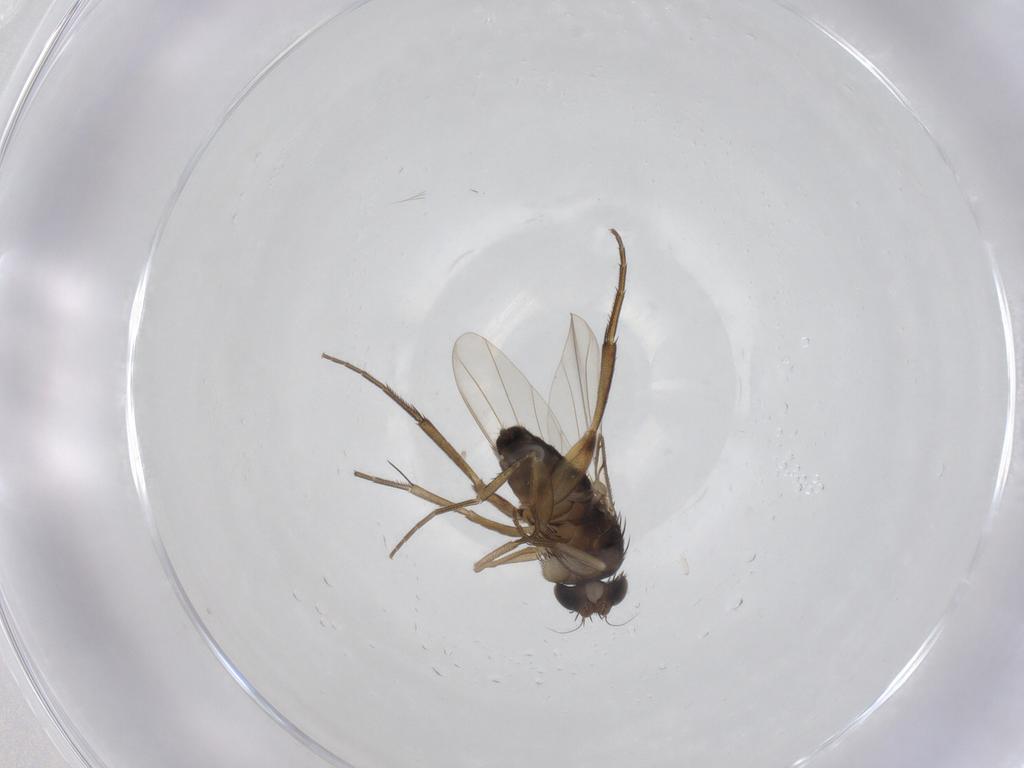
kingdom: Animalia
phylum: Arthropoda
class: Insecta
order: Diptera
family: Phoridae
